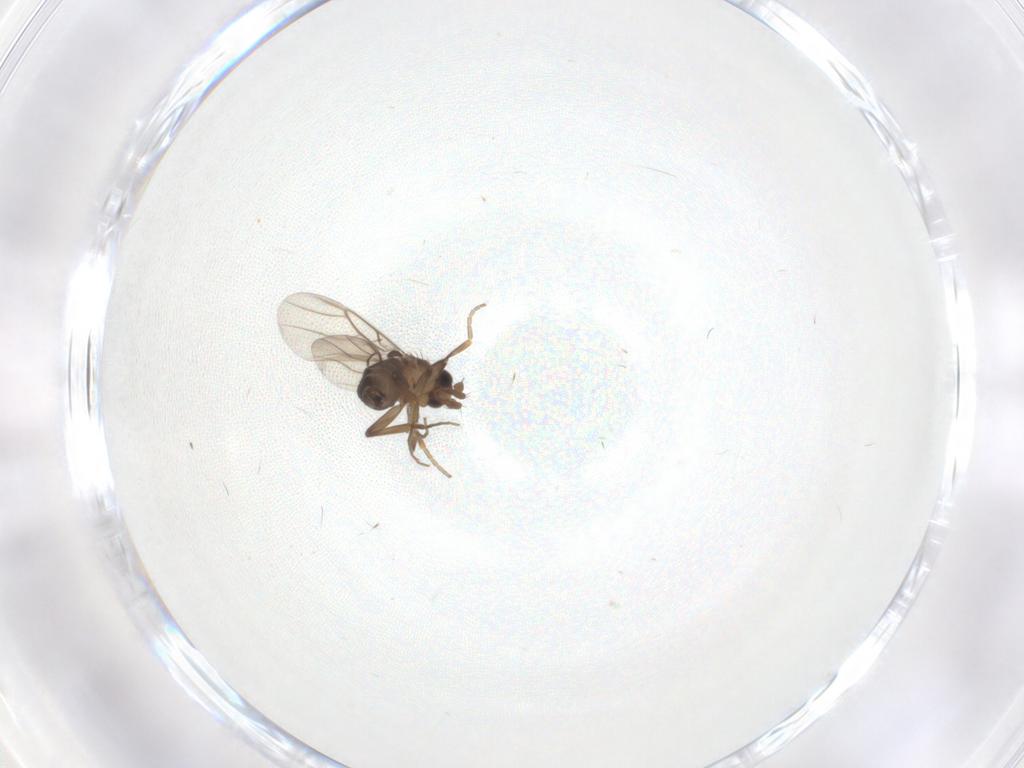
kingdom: Animalia
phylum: Arthropoda
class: Insecta
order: Diptera
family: Phoridae
